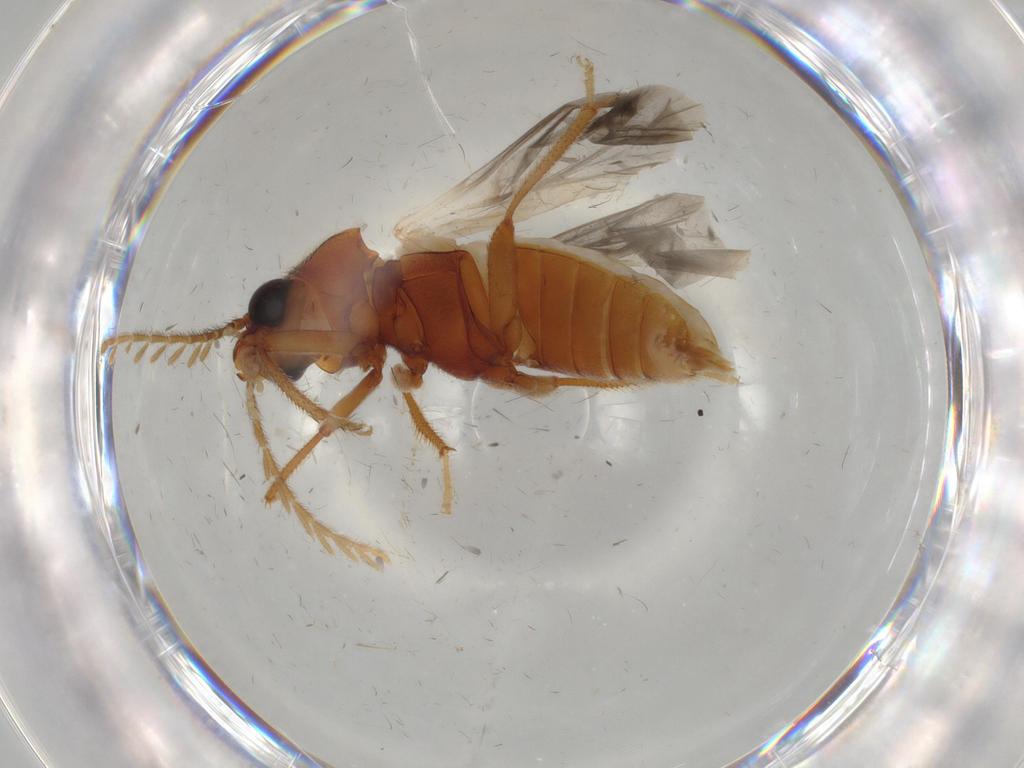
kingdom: Animalia
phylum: Arthropoda
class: Insecta
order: Coleoptera
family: Ptilodactylidae
